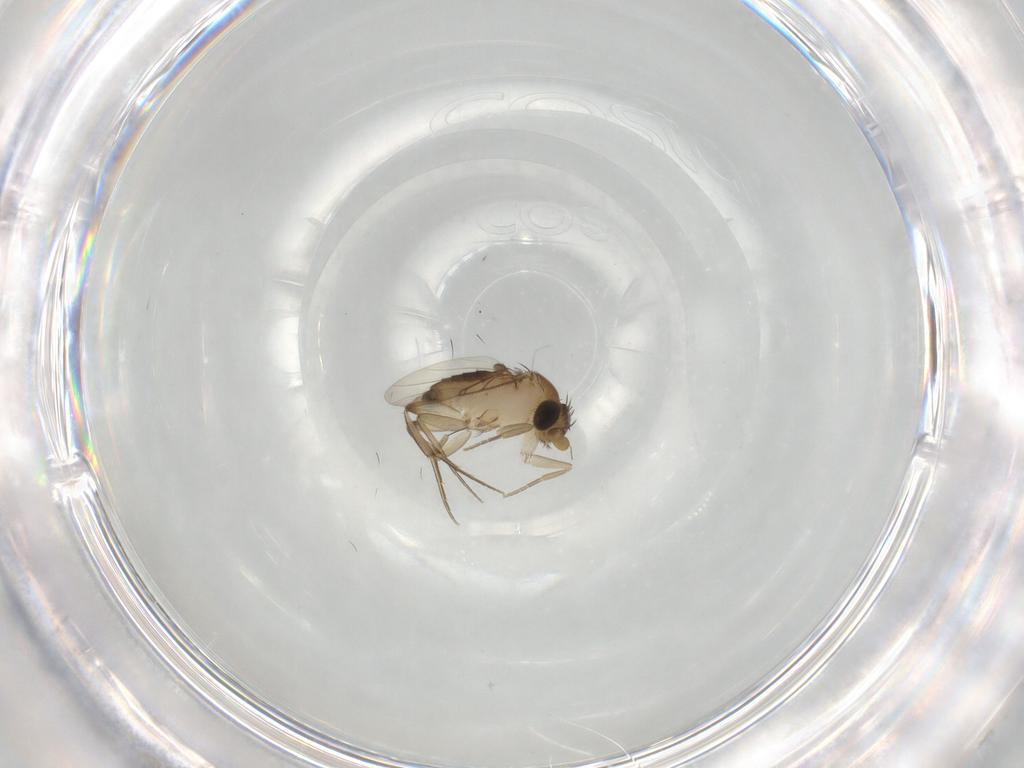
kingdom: Animalia
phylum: Arthropoda
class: Insecta
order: Diptera
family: Phoridae
